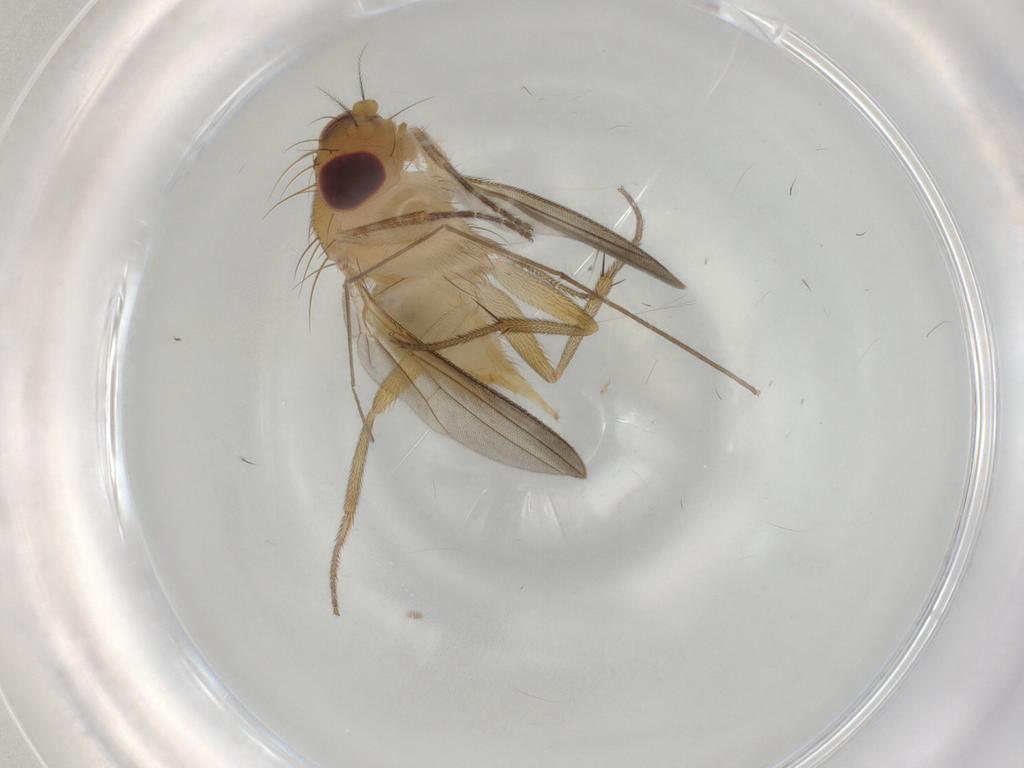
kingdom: Animalia
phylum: Arthropoda
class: Insecta
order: Diptera
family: Clusiidae
